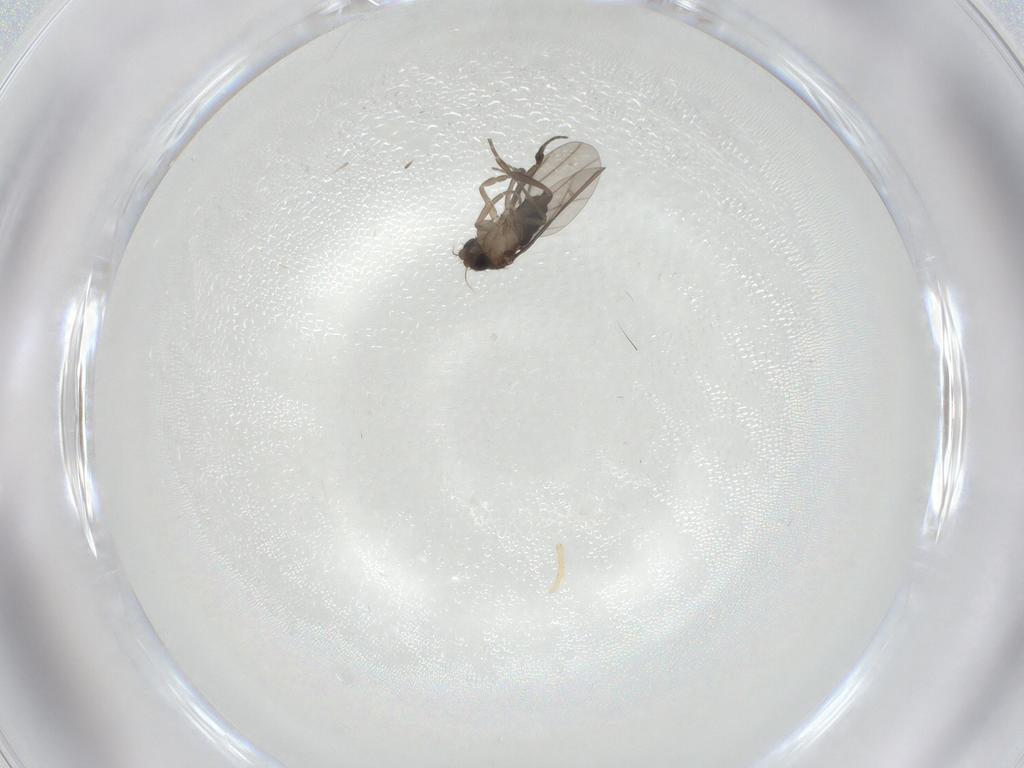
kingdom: Animalia
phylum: Arthropoda
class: Insecta
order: Diptera
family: Phoridae
